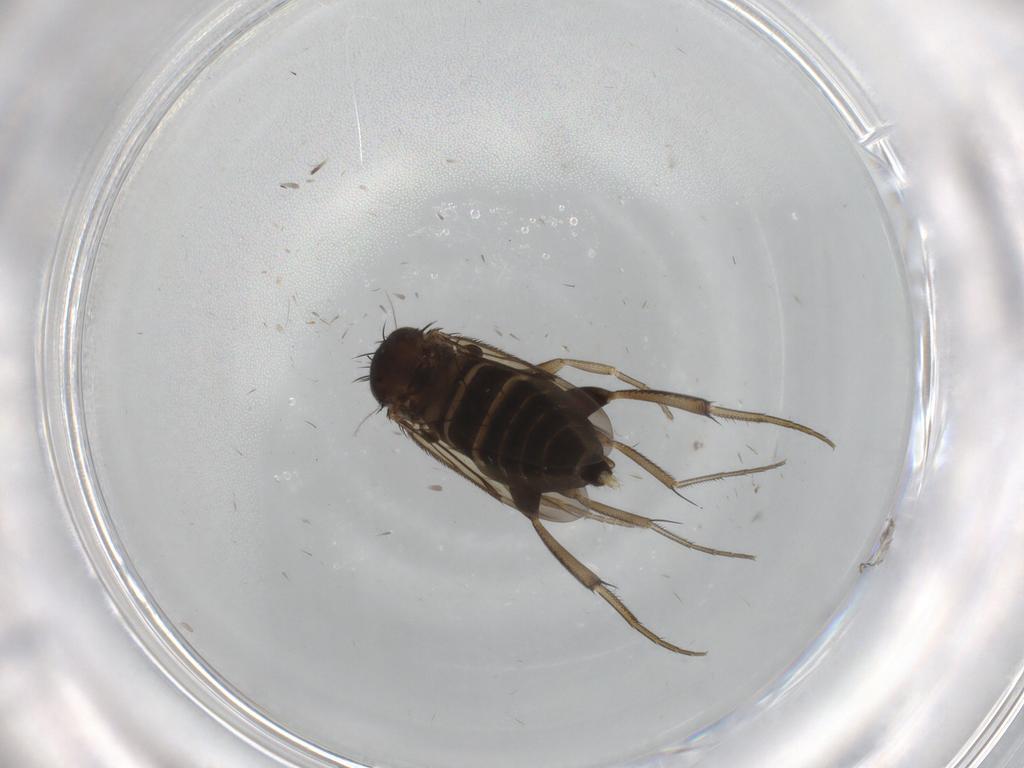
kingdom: Animalia
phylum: Arthropoda
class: Insecta
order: Diptera
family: Phoridae
